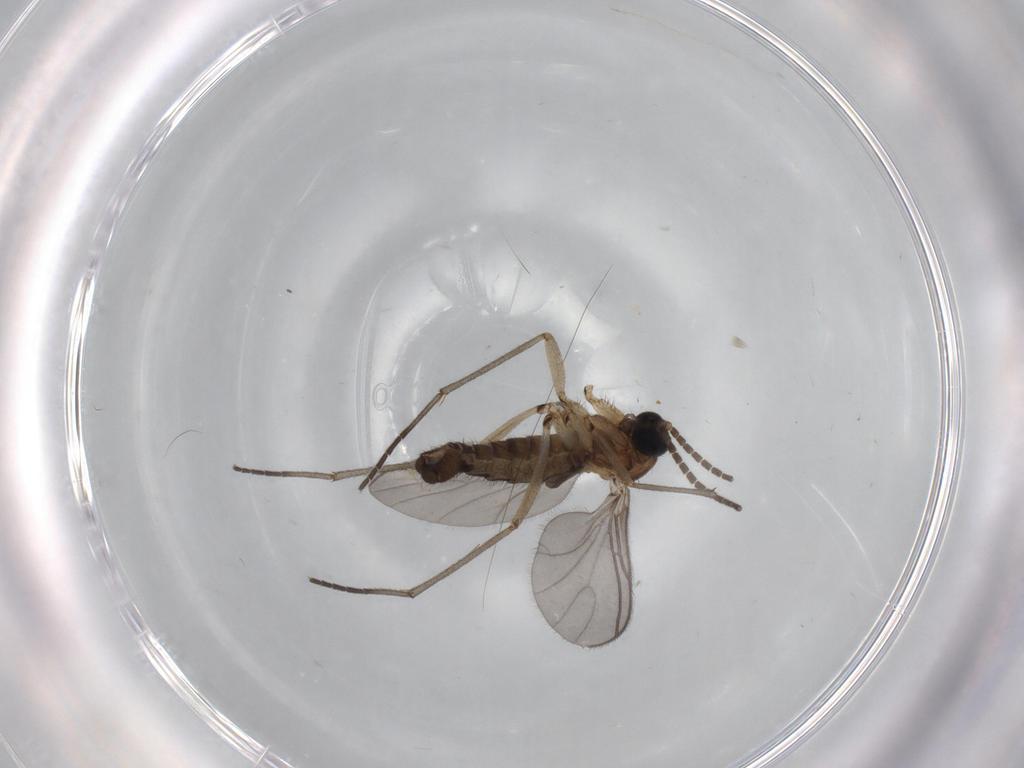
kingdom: Animalia
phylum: Arthropoda
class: Insecta
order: Diptera
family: Sciaridae
